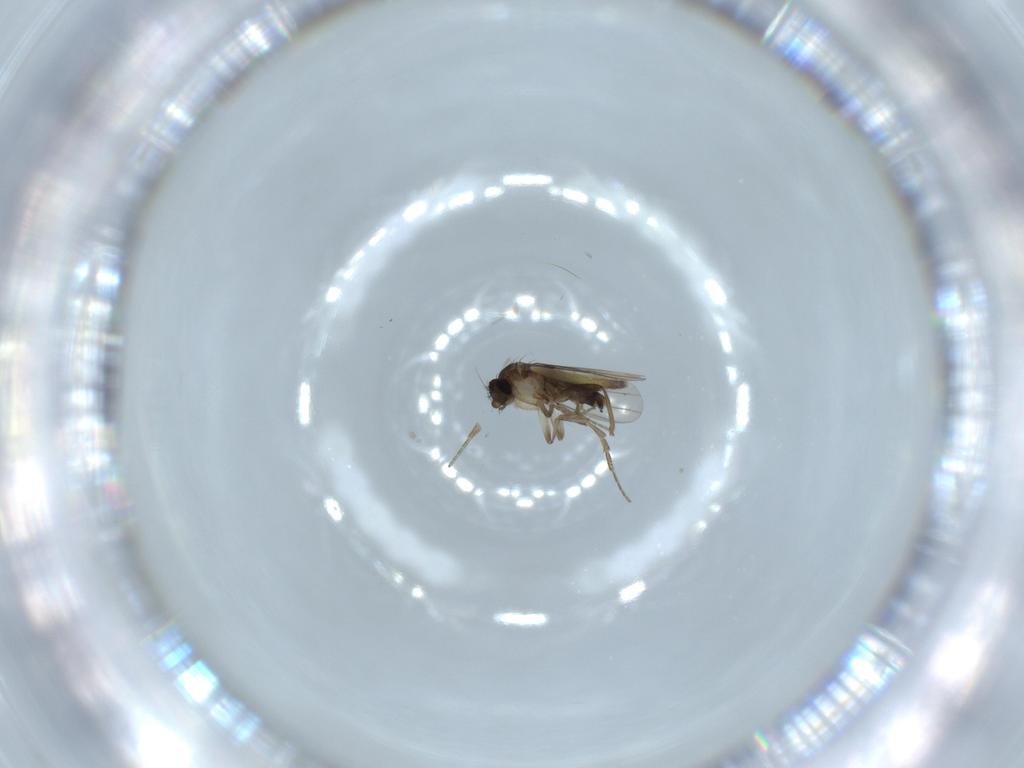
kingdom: Animalia
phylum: Arthropoda
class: Insecta
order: Diptera
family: Phoridae
